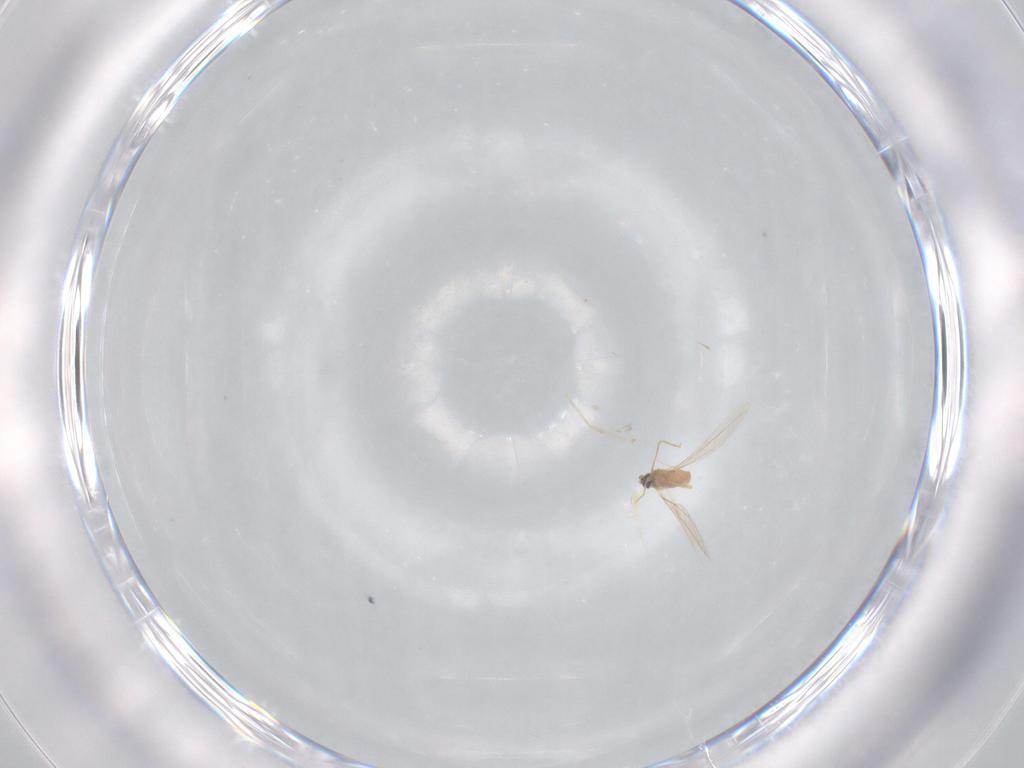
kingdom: Animalia
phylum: Arthropoda
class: Insecta
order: Diptera
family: Cecidomyiidae
